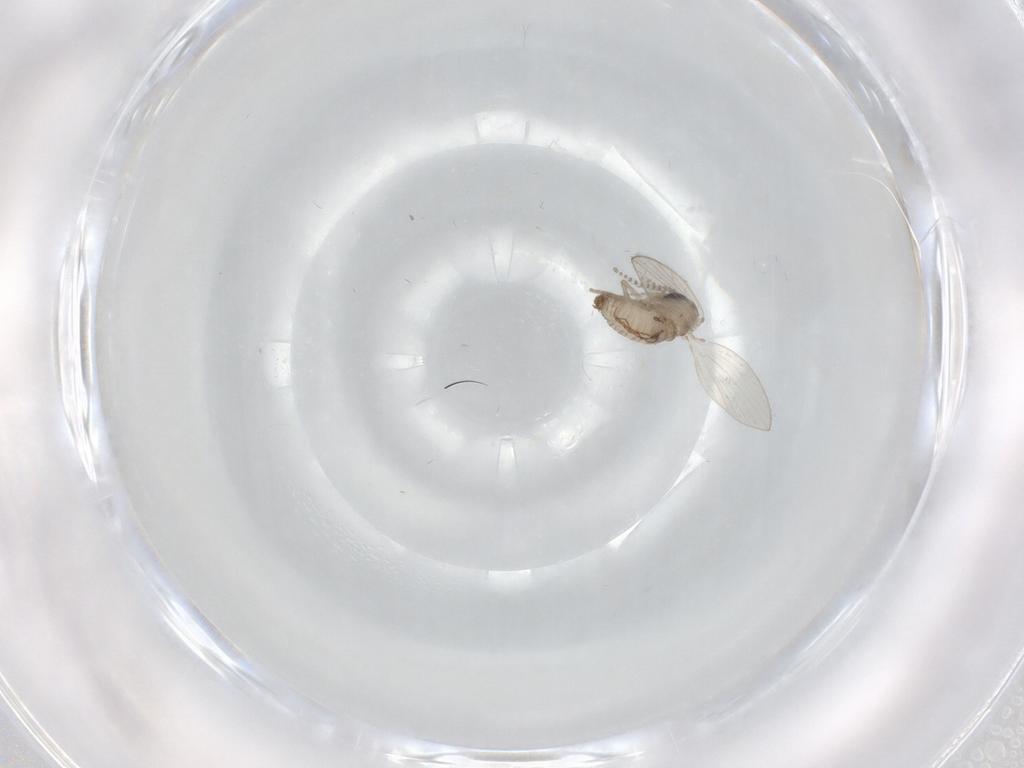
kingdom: Animalia
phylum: Arthropoda
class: Insecta
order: Diptera
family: Psychodidae
